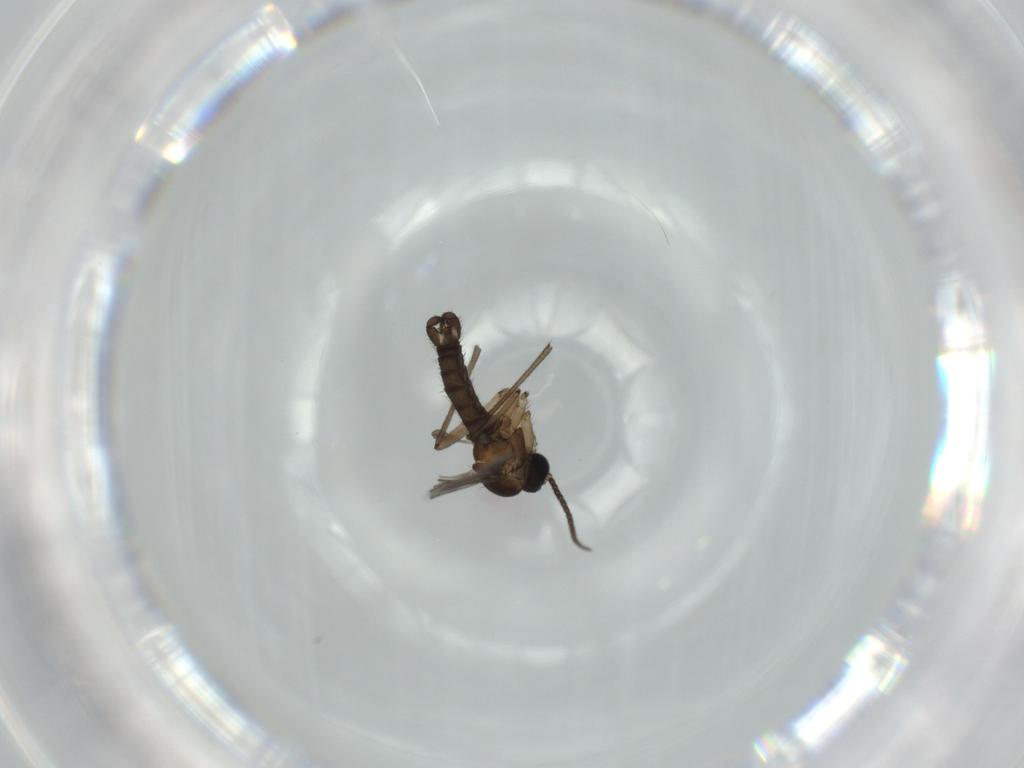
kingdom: Animalia
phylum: Arthropoda
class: Insecta
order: Diptera
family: Sciaridae
